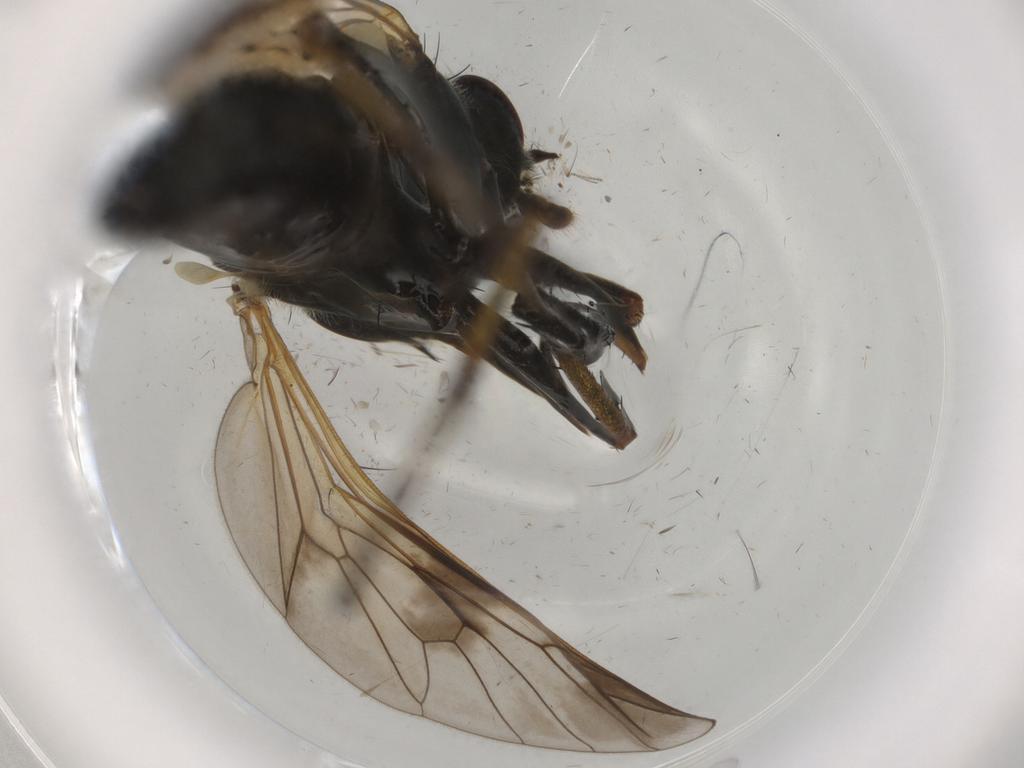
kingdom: Animalia
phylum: Arthropoda
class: Insecta
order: Diptera
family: Therevidae
